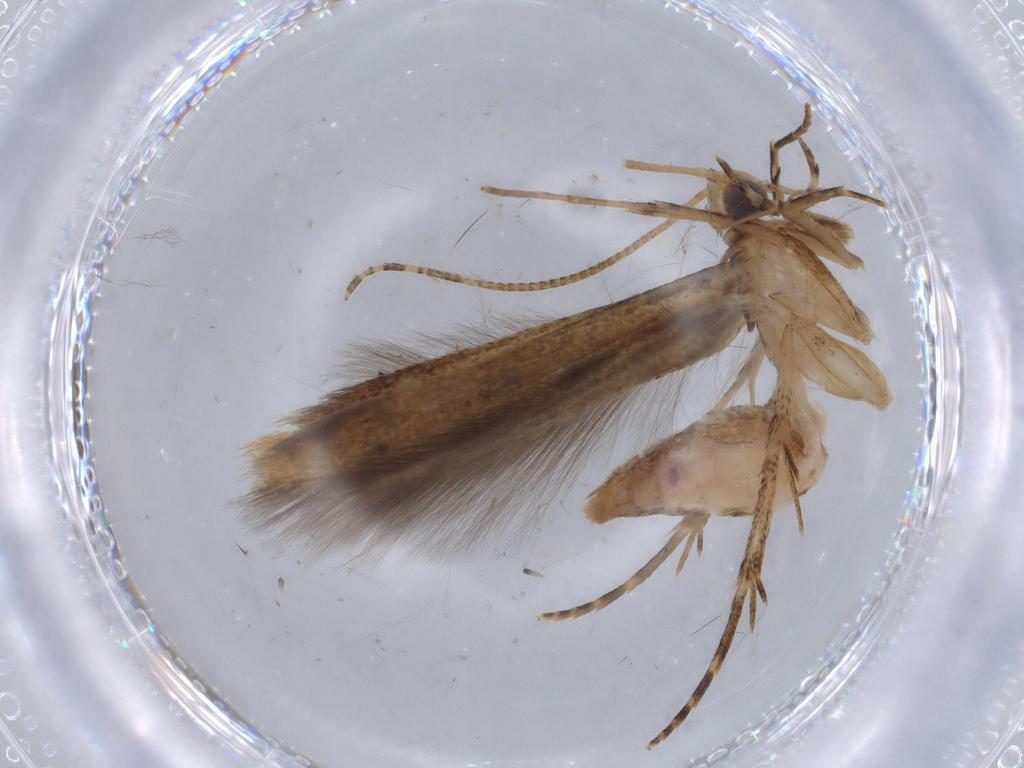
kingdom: Animalia
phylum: Arthropoda
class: Insecta
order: Lepidoptera
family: Batrachedridae
